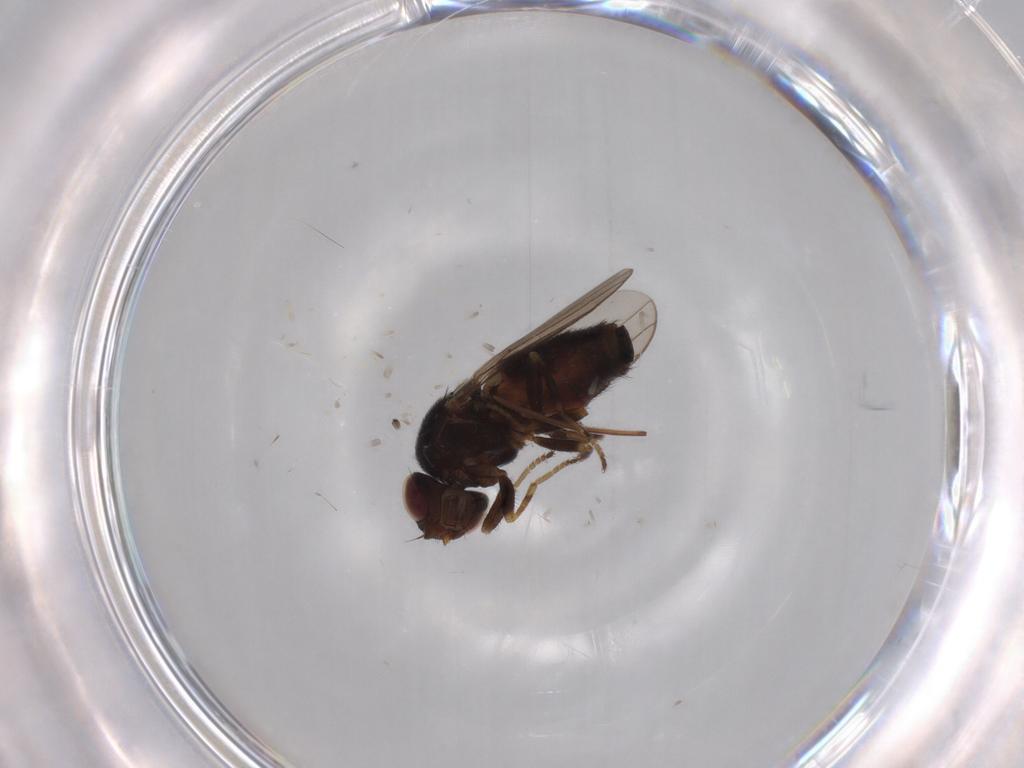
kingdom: Animalia
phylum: Arthropoda
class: Insecta
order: Diptera
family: Chloropidae
